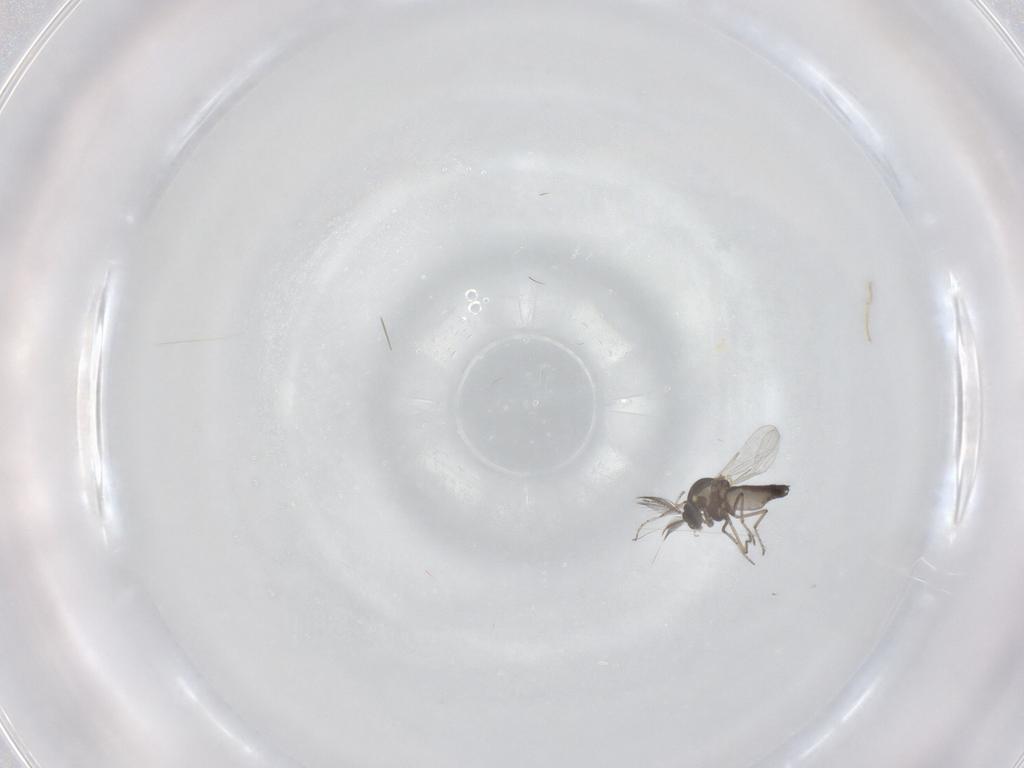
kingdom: Animalia
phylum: Arthropoda
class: Insecta
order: Diptera
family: Ceratopogonidae
